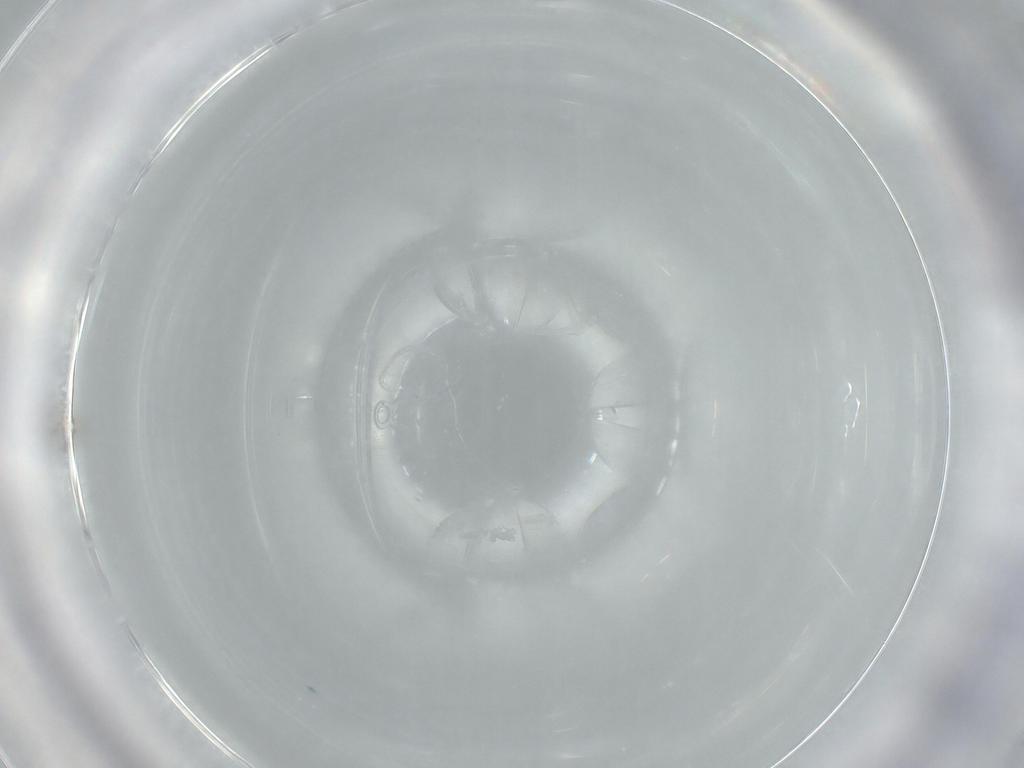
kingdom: Animalia
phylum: Arthropoda
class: Insecta
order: Hymenoptera
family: Mymaridae
